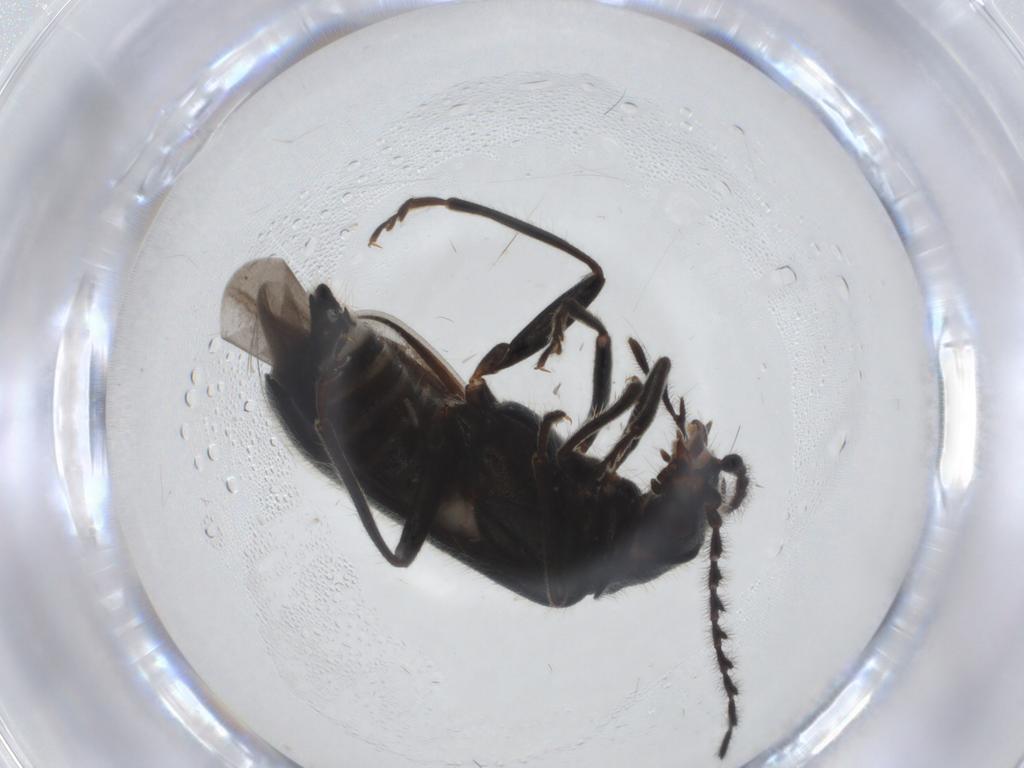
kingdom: Animalia
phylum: Arthropoda
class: Insecta
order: Coleoptera
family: Melyridae
